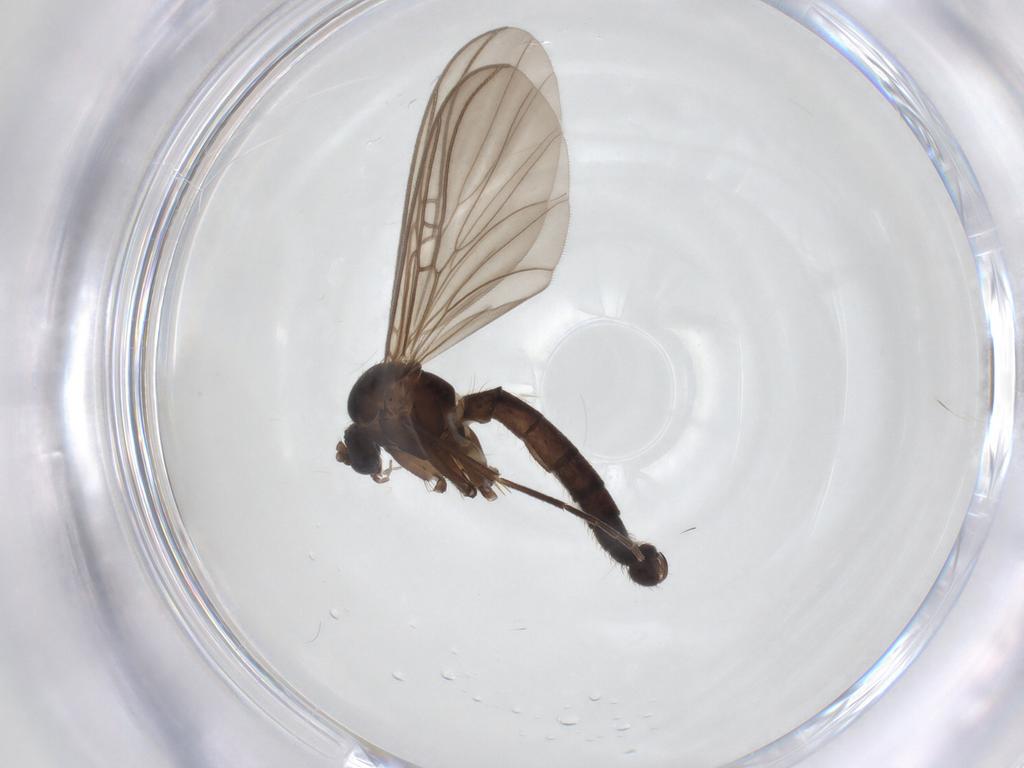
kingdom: Animalia
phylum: Arthropoda
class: Insecta
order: Diptera
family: Mycetophilidae
